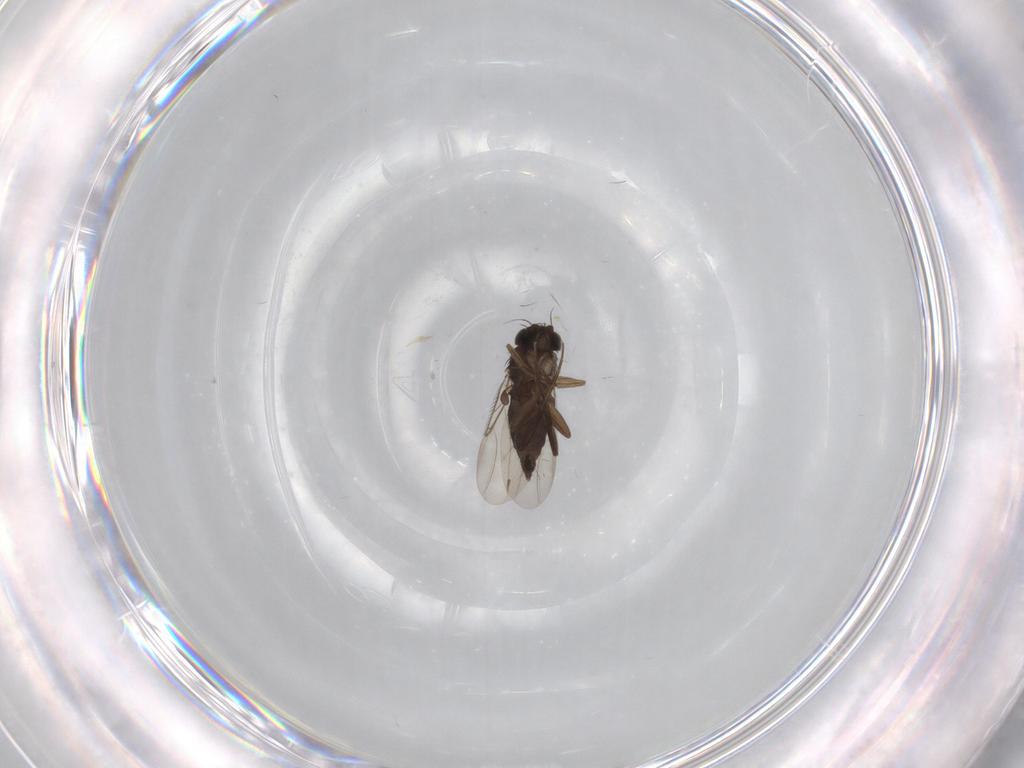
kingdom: Animalia
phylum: Arthropoda
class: Insecta
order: Diptera
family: Phoridae
